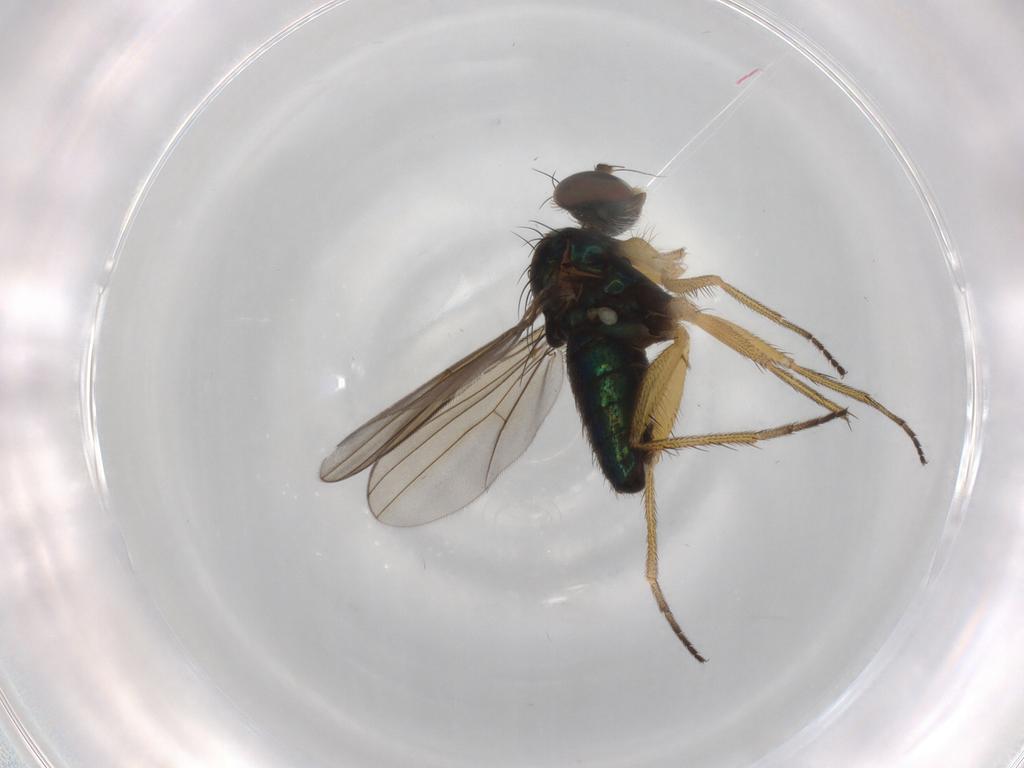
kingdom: Animalia
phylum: Arthropoda
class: Insecta
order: Diptera
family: Dolichopodidae
